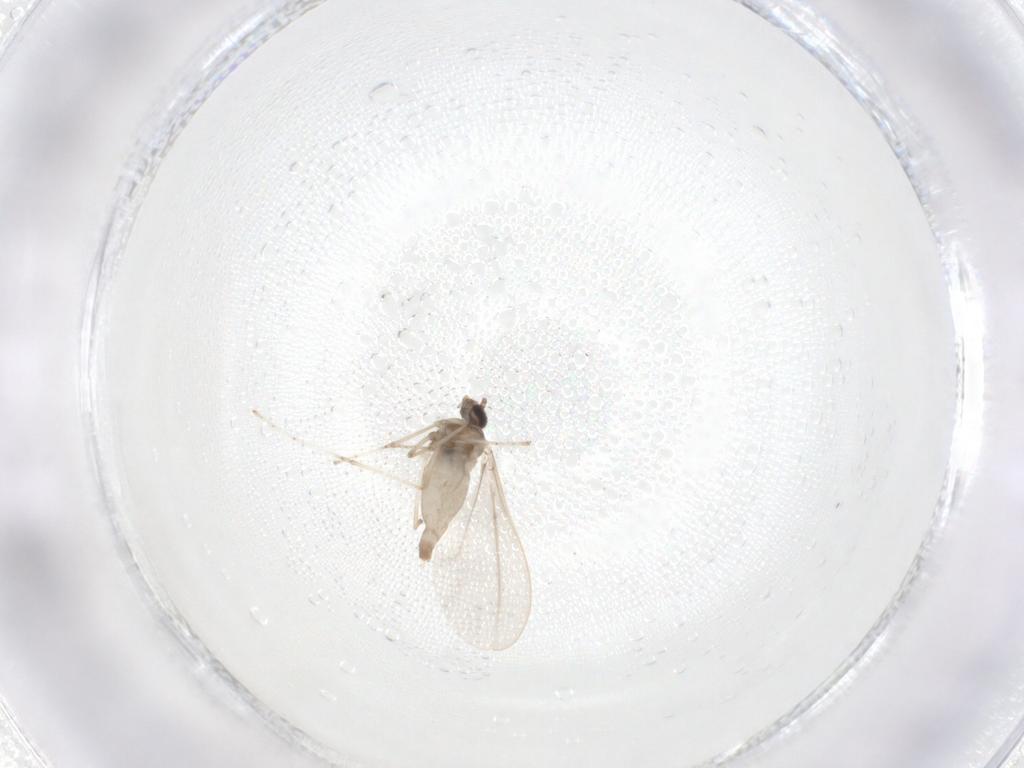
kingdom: Animalia
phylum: Arthropoda
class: Insecta
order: Diptera
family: Cecidomyiidae
